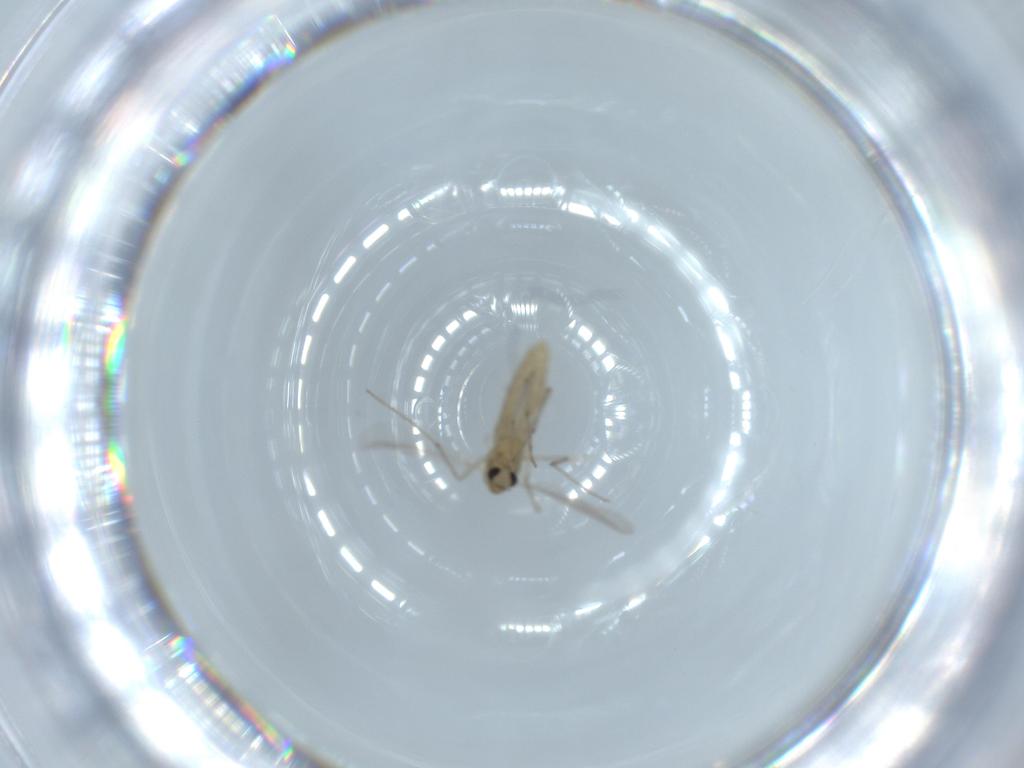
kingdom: Animalia
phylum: Arthropoda
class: Insecta
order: Diptera
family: Chironomidae
